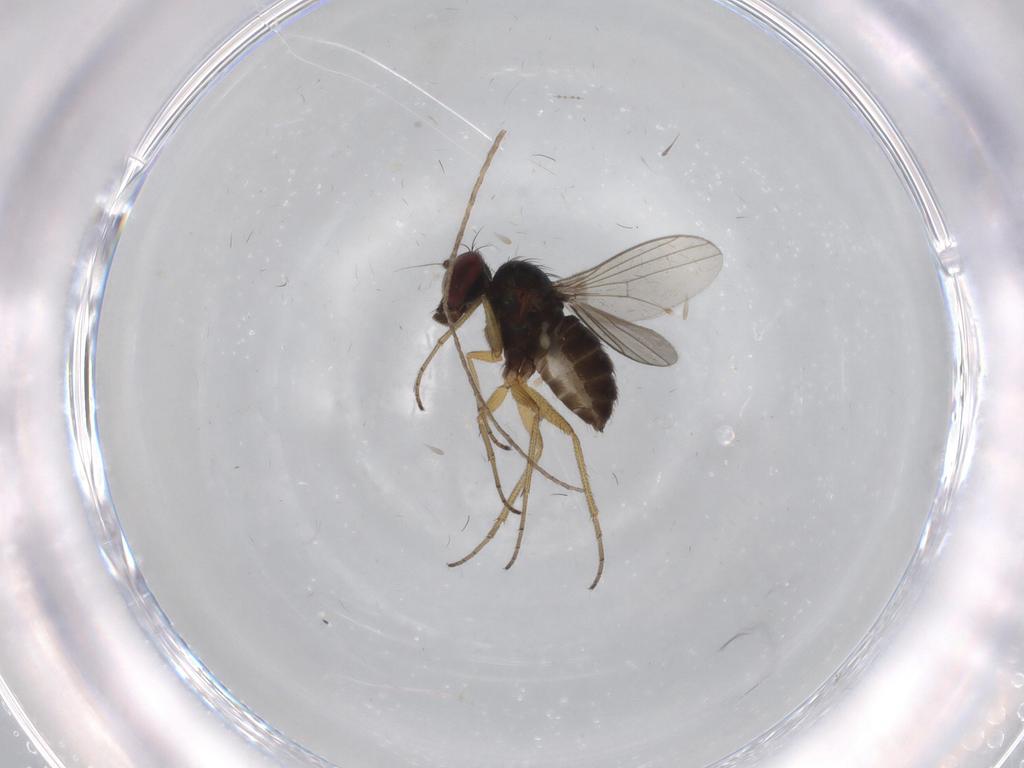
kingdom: Animalia
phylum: Arthropoda
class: Insecta
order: Diptera
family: Dolichopodidae
